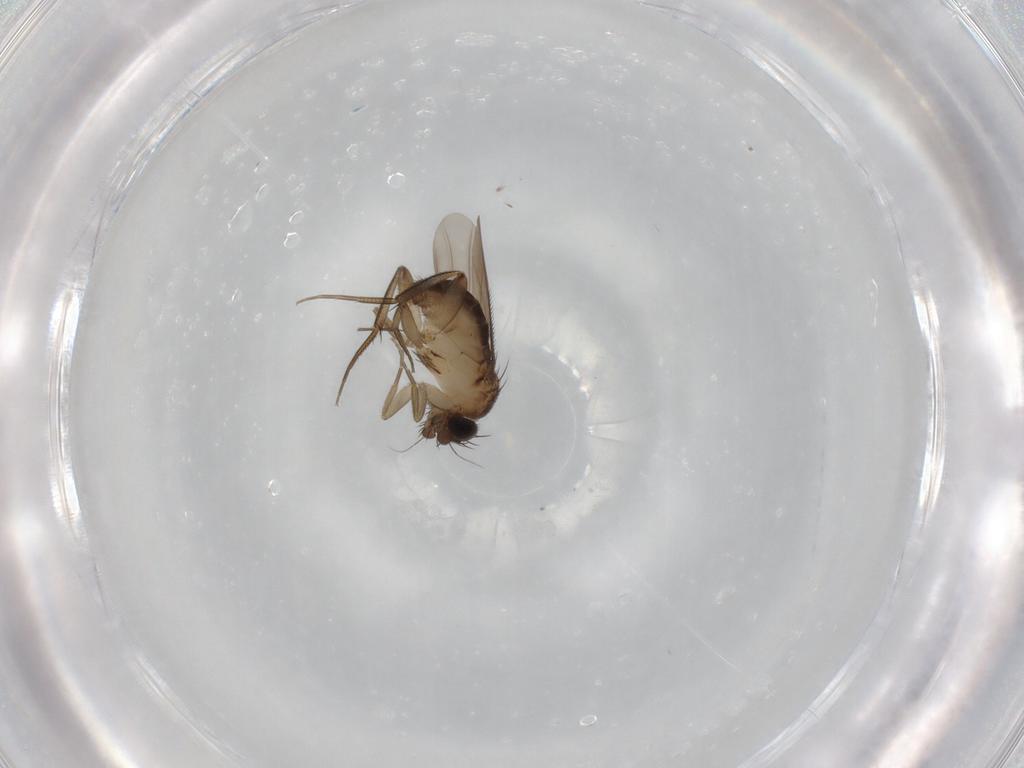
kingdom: Animalia
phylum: Arthropoda
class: Insecta
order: Diptera
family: Phoridae
